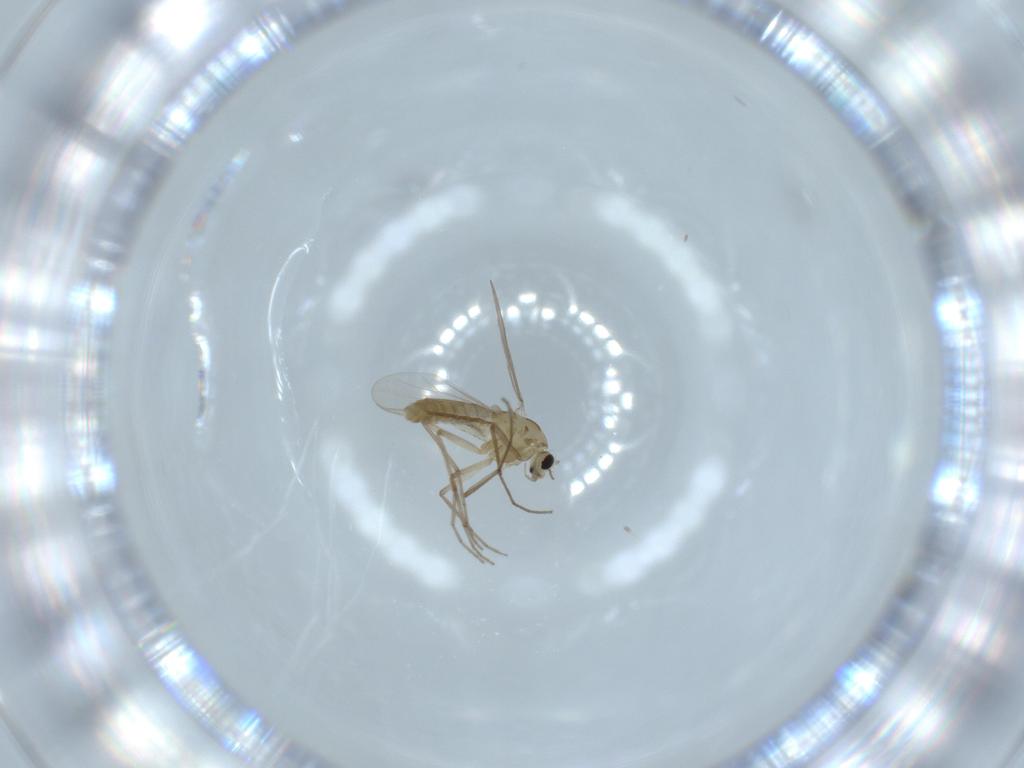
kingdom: Animalia
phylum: Arthropoda
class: Insecta
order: Diptera
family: Chironomidae
